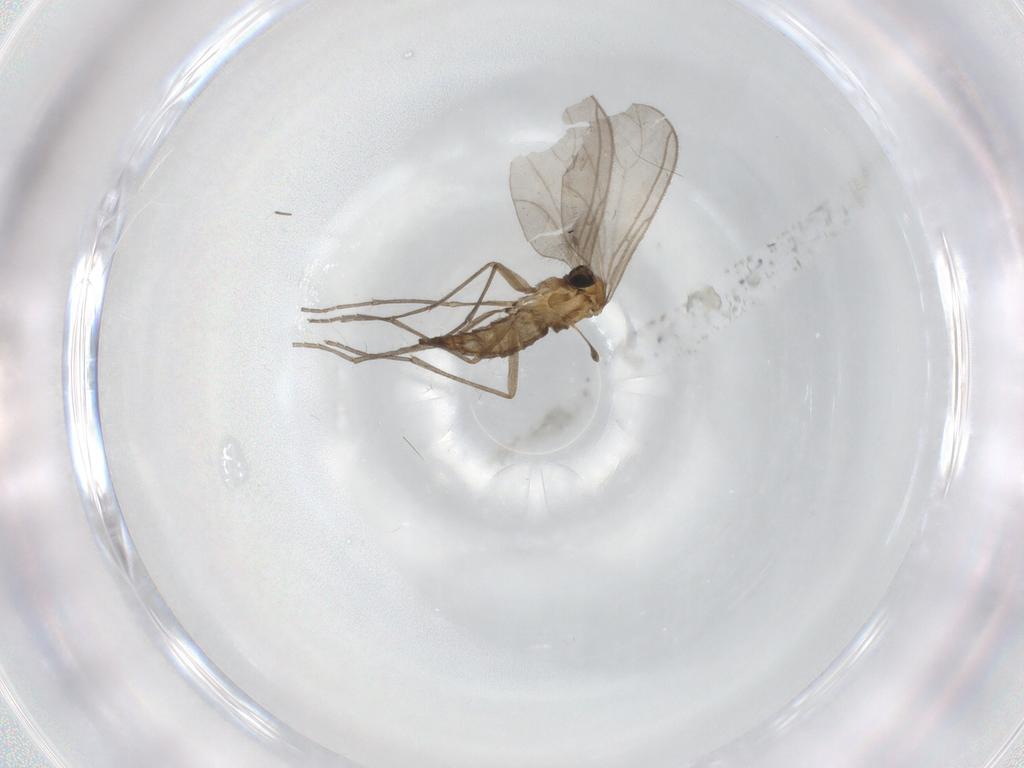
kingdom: Animalia
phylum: Arthropoda
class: Insecta
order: Diptera
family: Sciaridae
